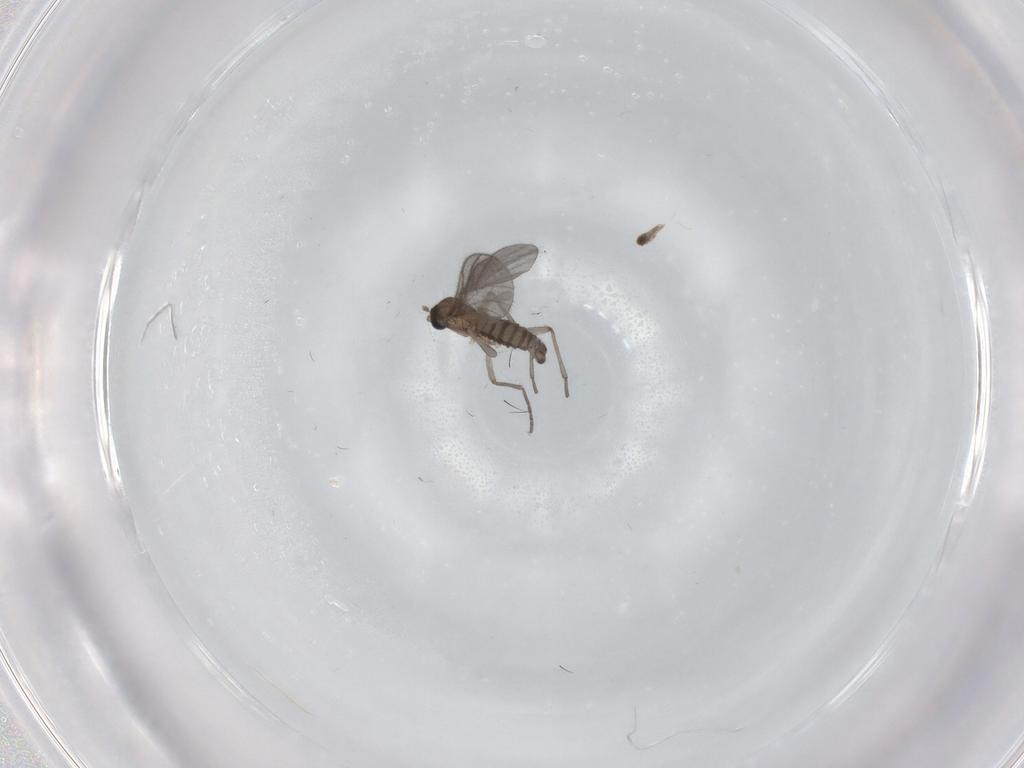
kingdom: Animalia
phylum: Arthropoda
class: Insecta
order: Diptera
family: Sciaridae
